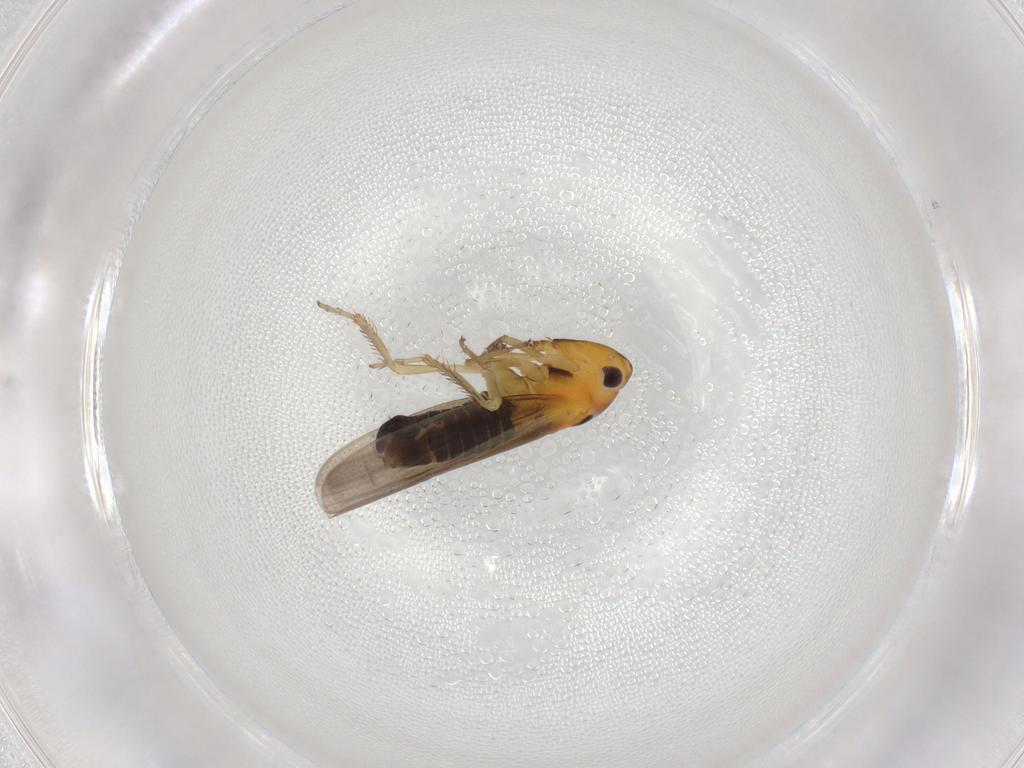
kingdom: Animalia
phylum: Arthropoda
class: Insecta
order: Hemiptera
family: Cicadellidae
